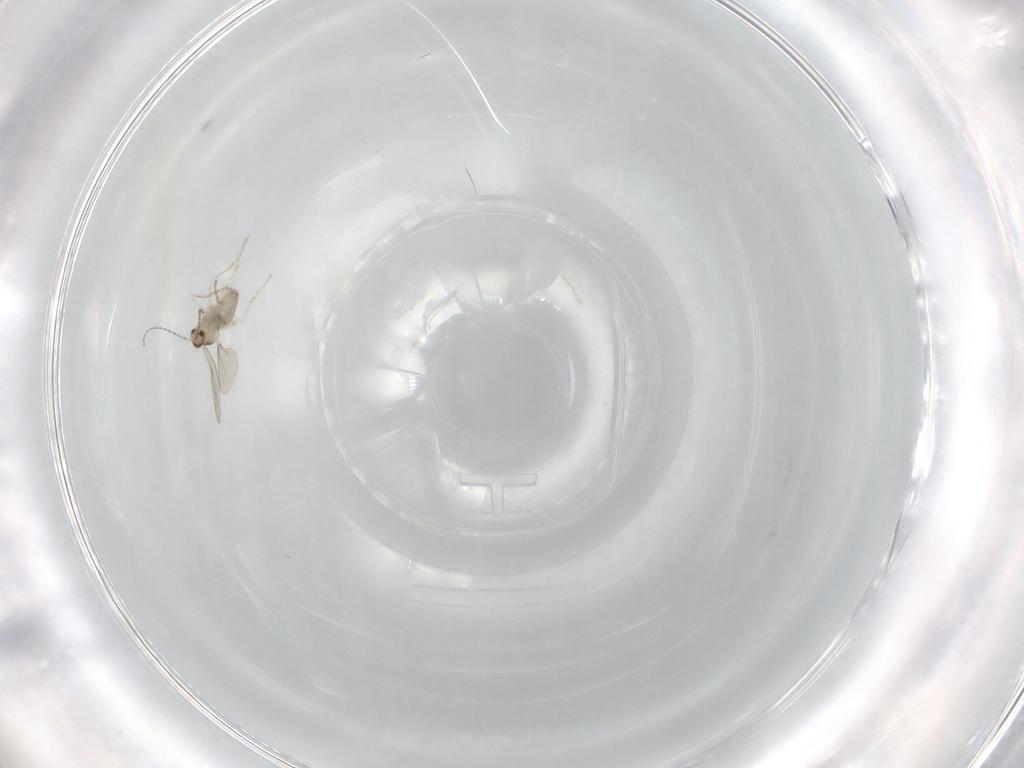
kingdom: Animalia
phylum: Arthropoda
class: Insecta
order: Diptera
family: Cecidomyiidae
